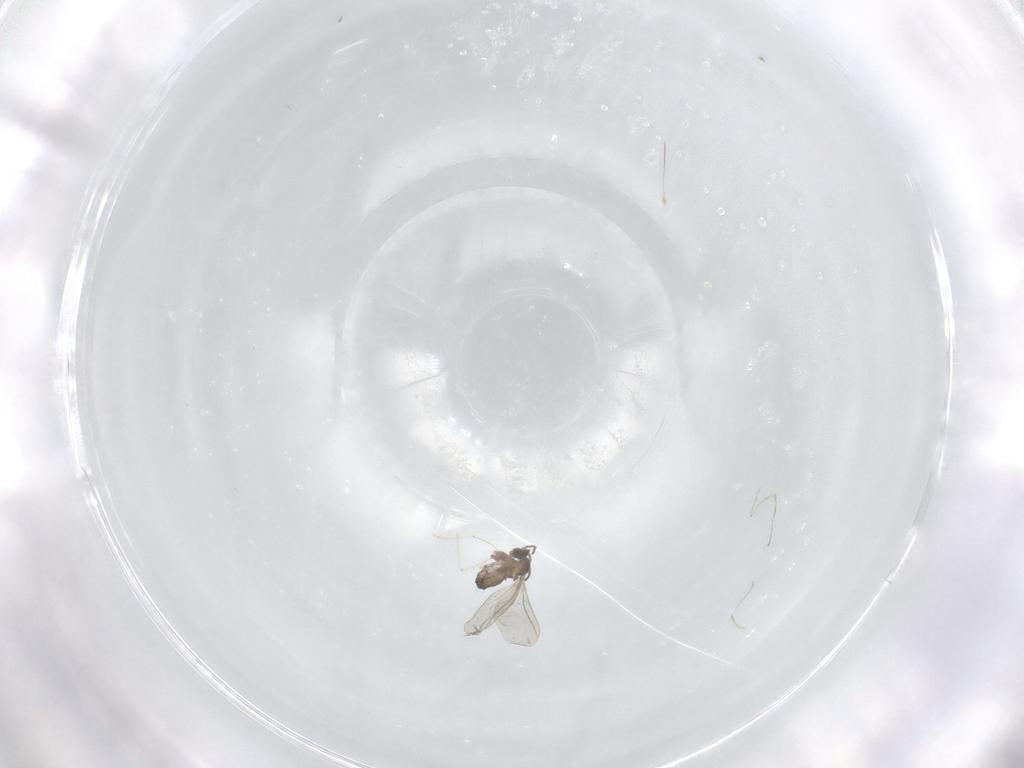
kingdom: Animalia
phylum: Arthropoda
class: Insecta
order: Diptera
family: Cecidomyiidae
